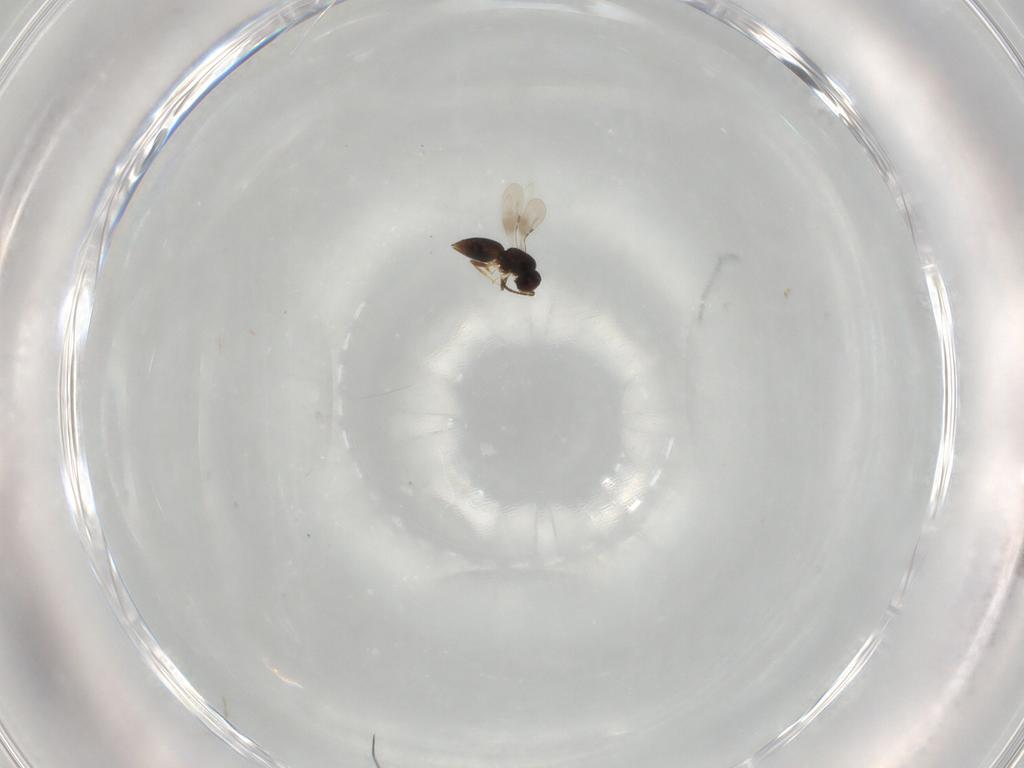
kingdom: Animalia
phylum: Arthropoda
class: Insecta
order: Hymenoptera
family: Ceraphronidae
